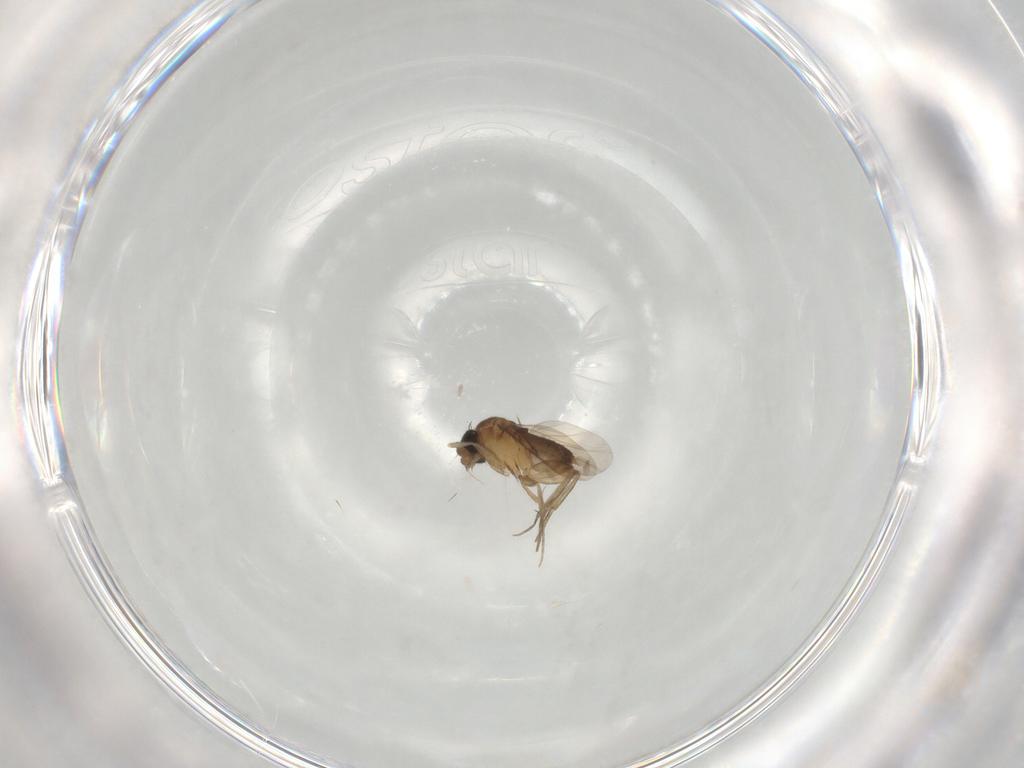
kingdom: Animalia
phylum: Arthropoda
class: Insecta
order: Diptera
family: Phoridae
